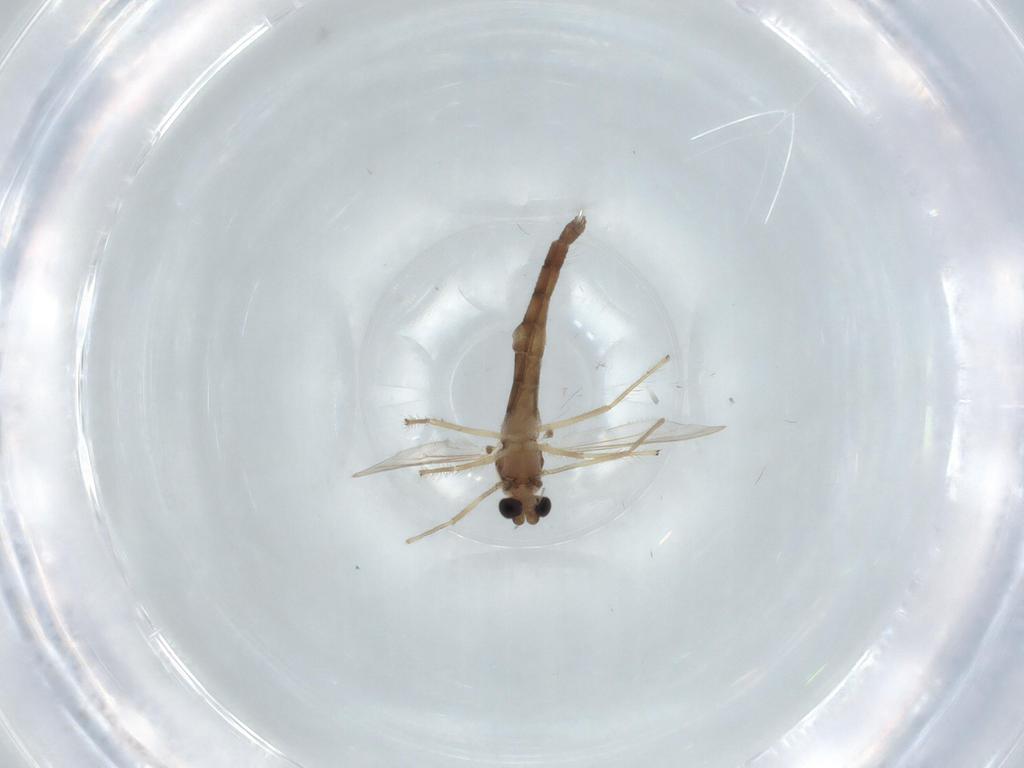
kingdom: Animalia
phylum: Arthropoda
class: Insecta
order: Diptera
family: Chironomidae
